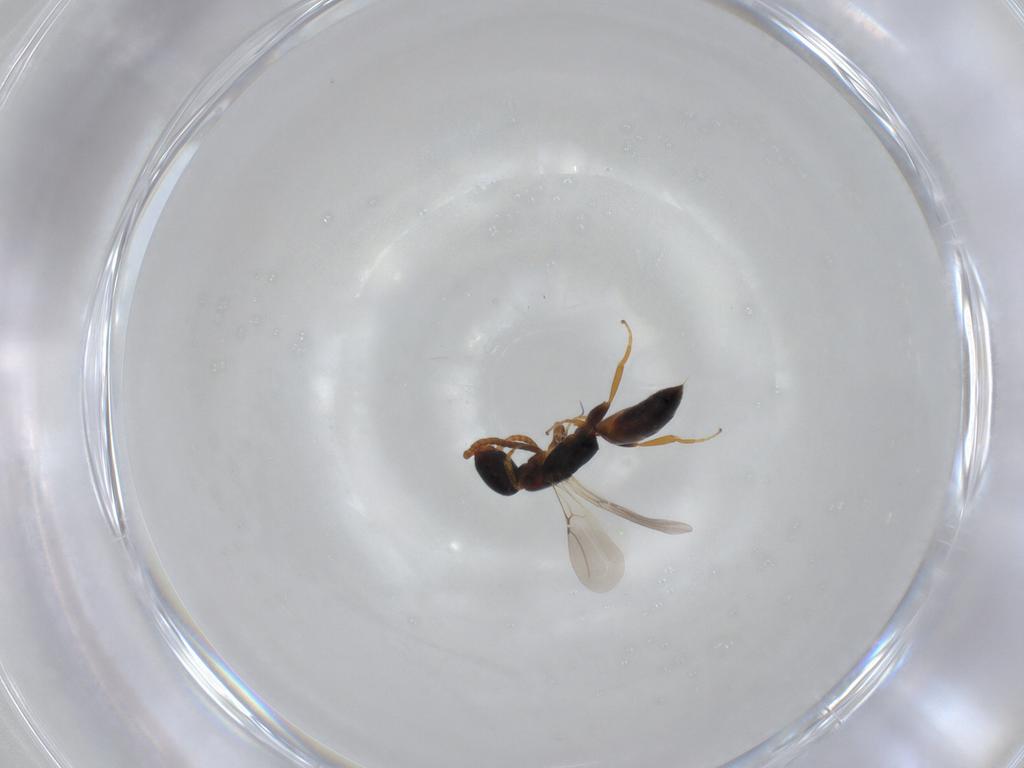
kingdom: Animalia
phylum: Arthropoda
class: Insecta
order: Hymenoptera
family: Bethylidae
